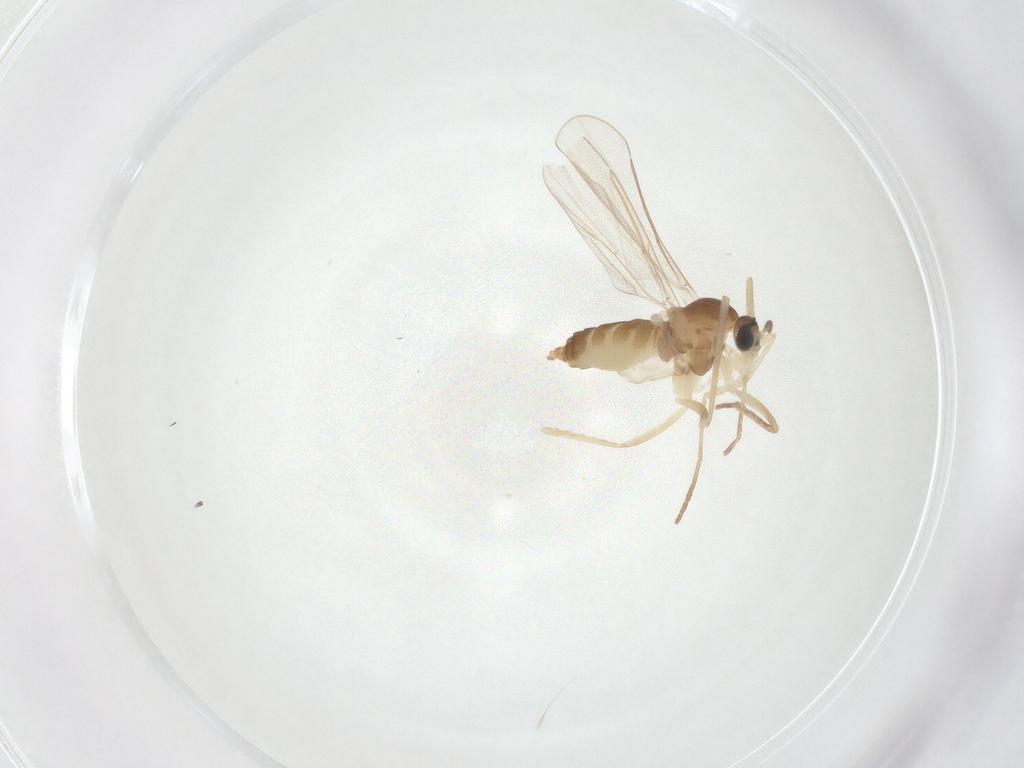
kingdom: Animalia
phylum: Arthropoda
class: Insecta
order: Diptera
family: Cecidomyiidae
